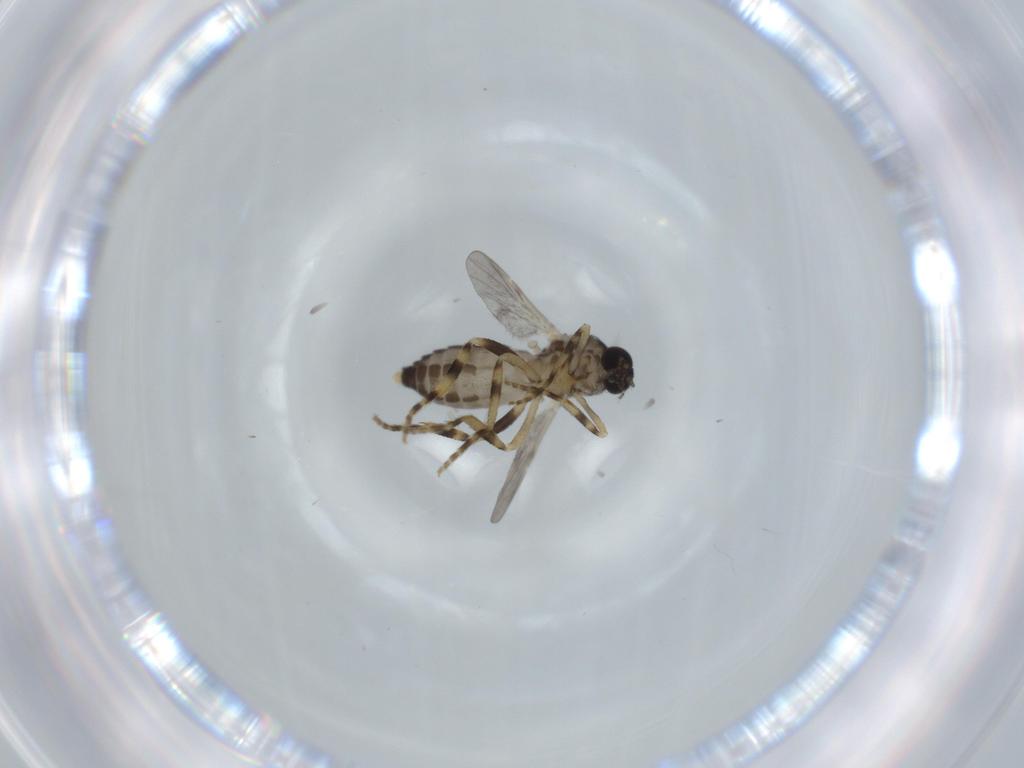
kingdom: Animalia
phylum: Arthropoda
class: Insecta
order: Diptera
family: Ceratopogonidae
